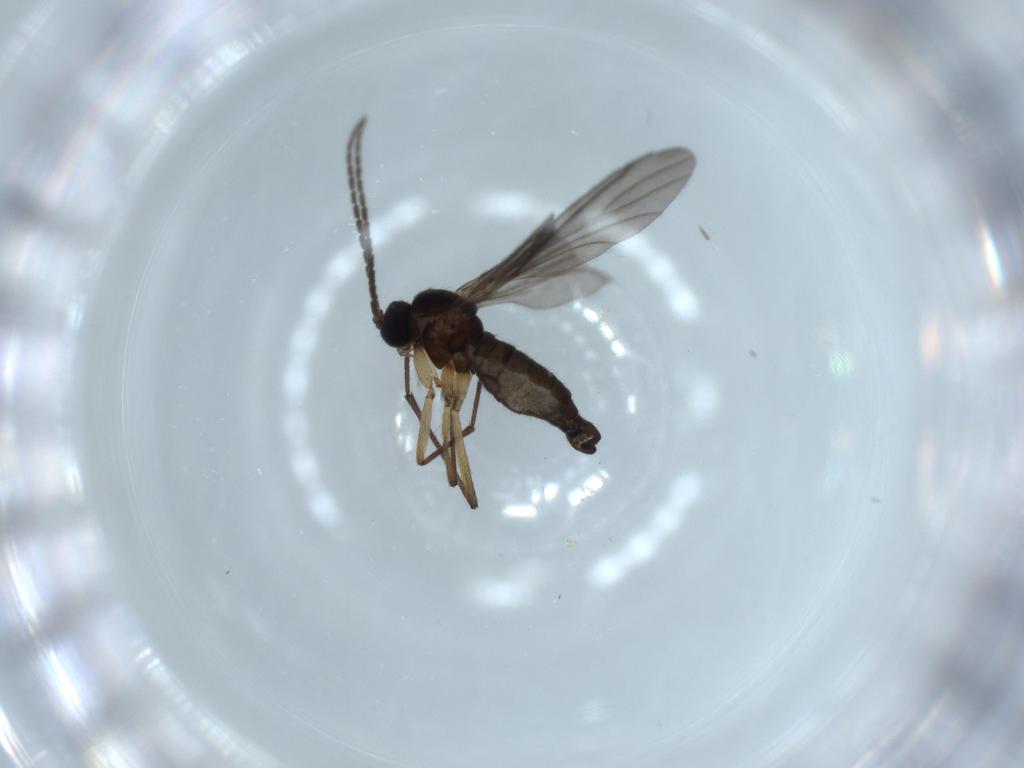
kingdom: Animalia
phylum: Arthropoda
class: Insecta
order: Diptera
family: Sciaridae
